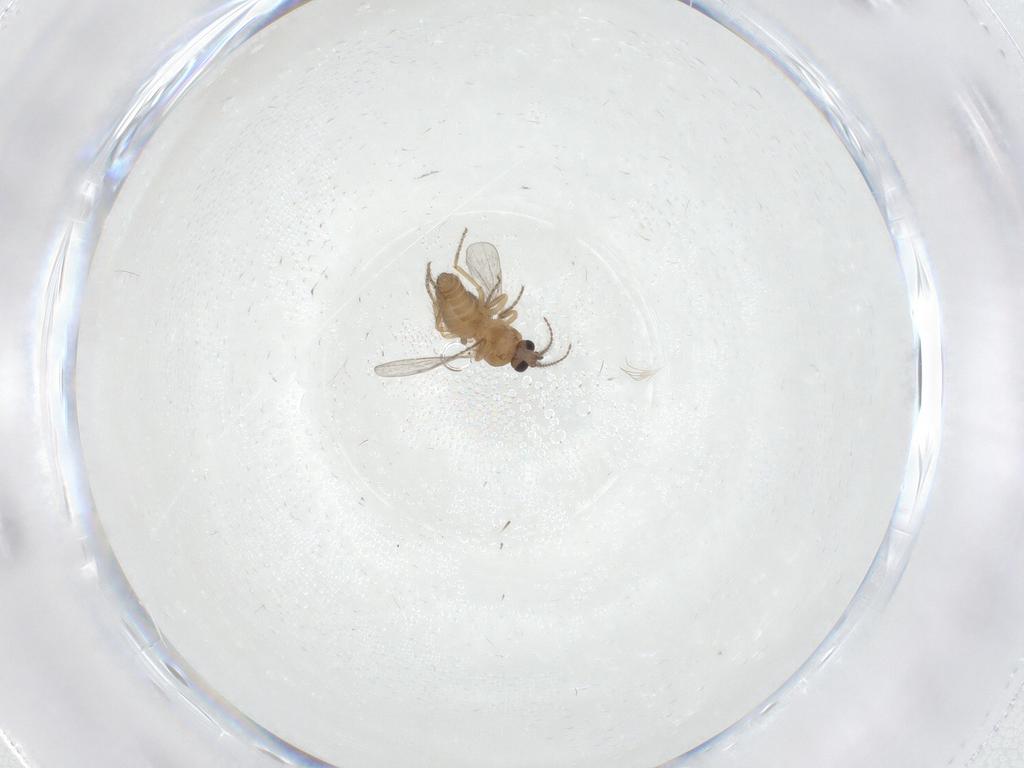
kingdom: Animalia
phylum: Arthropoda
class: Insecta
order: Diptera
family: Ceratopogonidae
